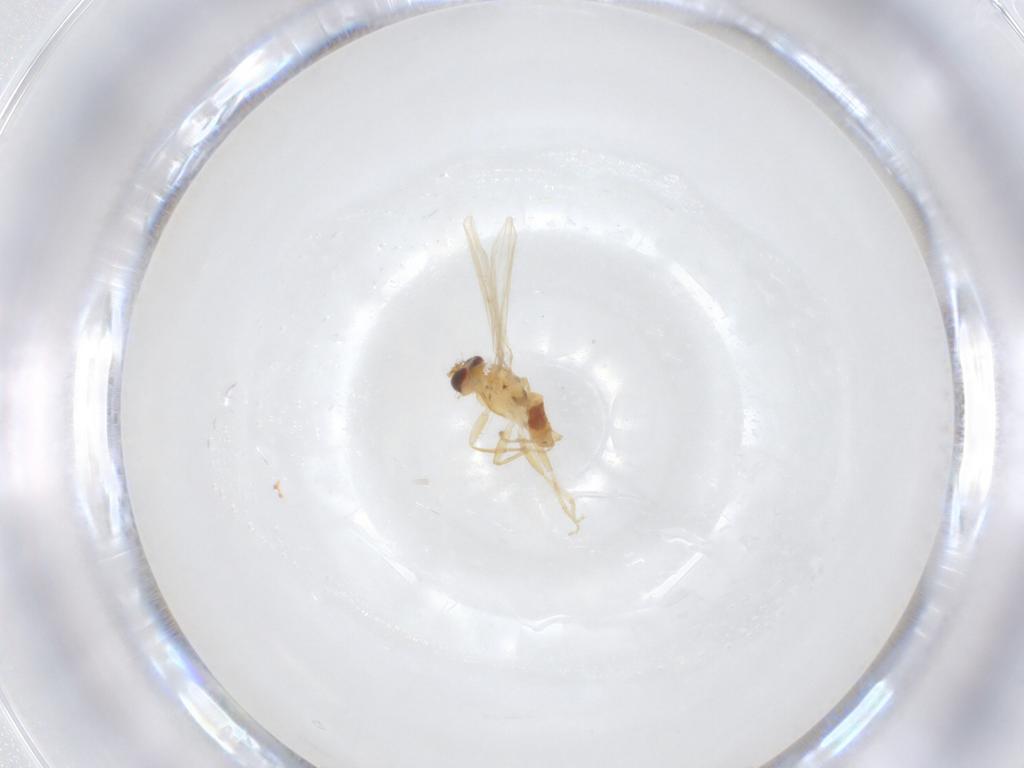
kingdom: Animalia
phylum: Arthropoda
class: Insecta
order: Diptera
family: Periscelididae
